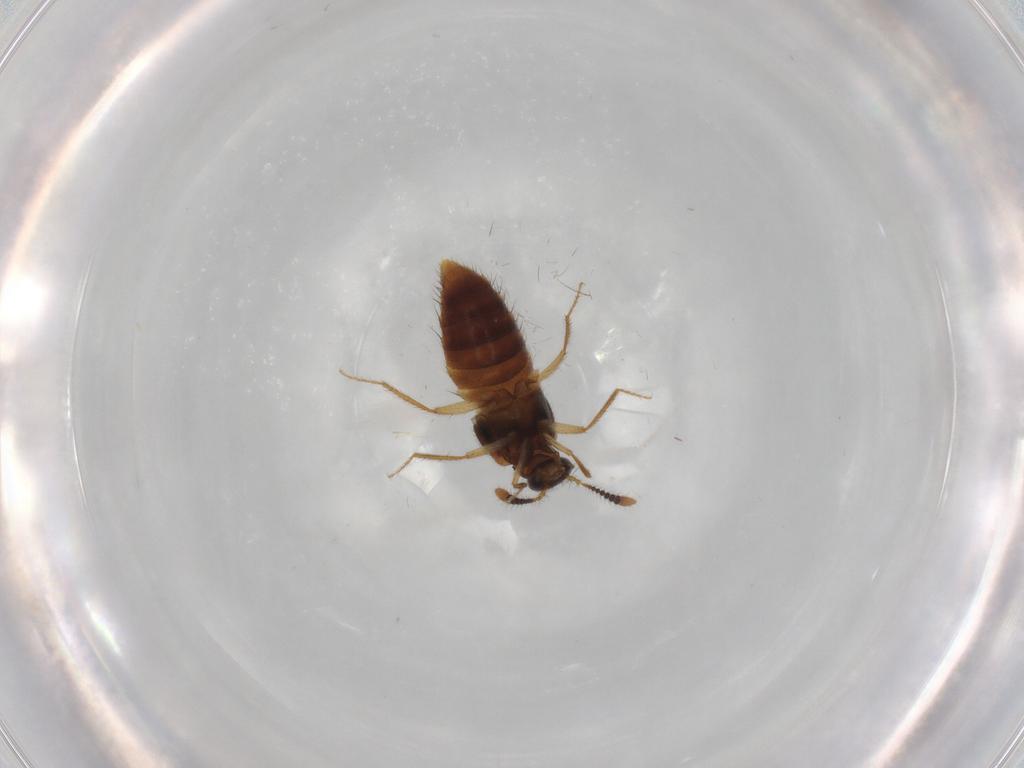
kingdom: Animalia
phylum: Arthropoda
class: Insecta
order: Coleoptera
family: Staphylinidae
